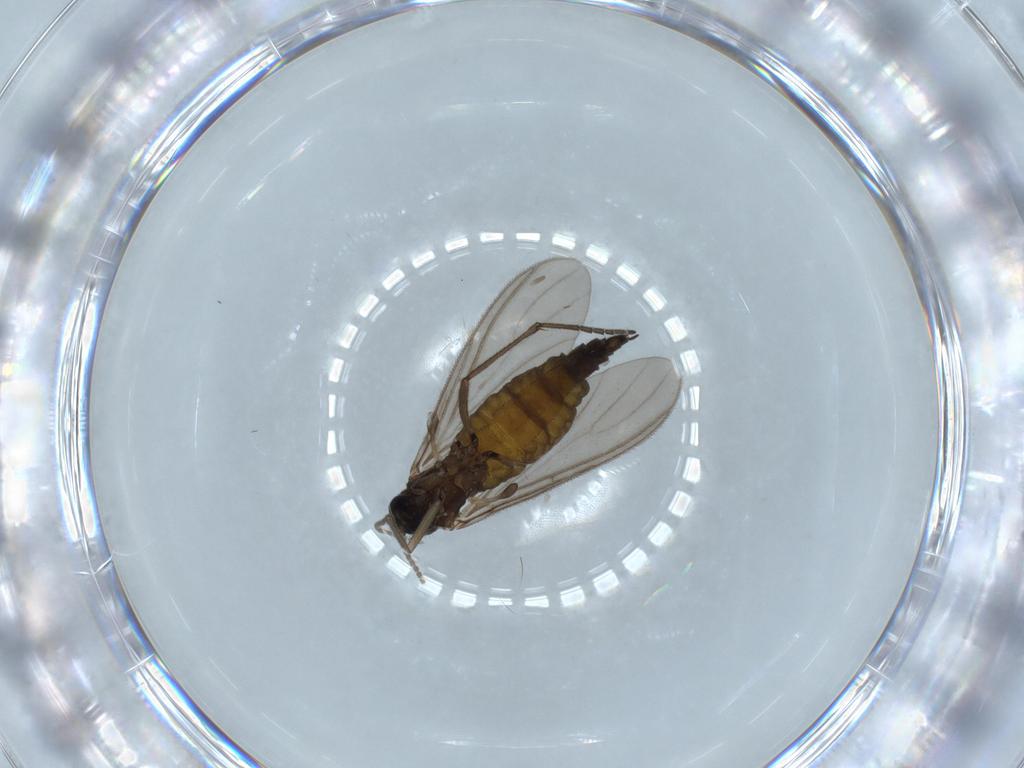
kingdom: Animalia
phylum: Arthropoda
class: Insecta
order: Diptera
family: Sciaridae
